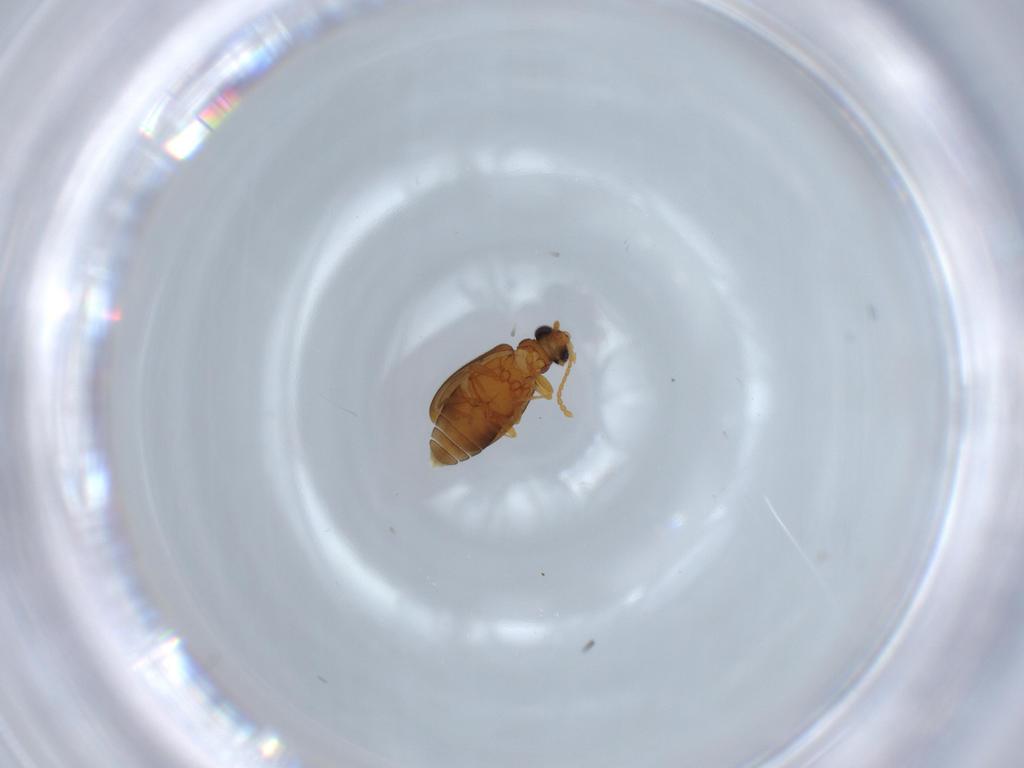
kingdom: Animalia
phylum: Arthropoda
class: Insecta
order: Coleoptera
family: Aderidae
